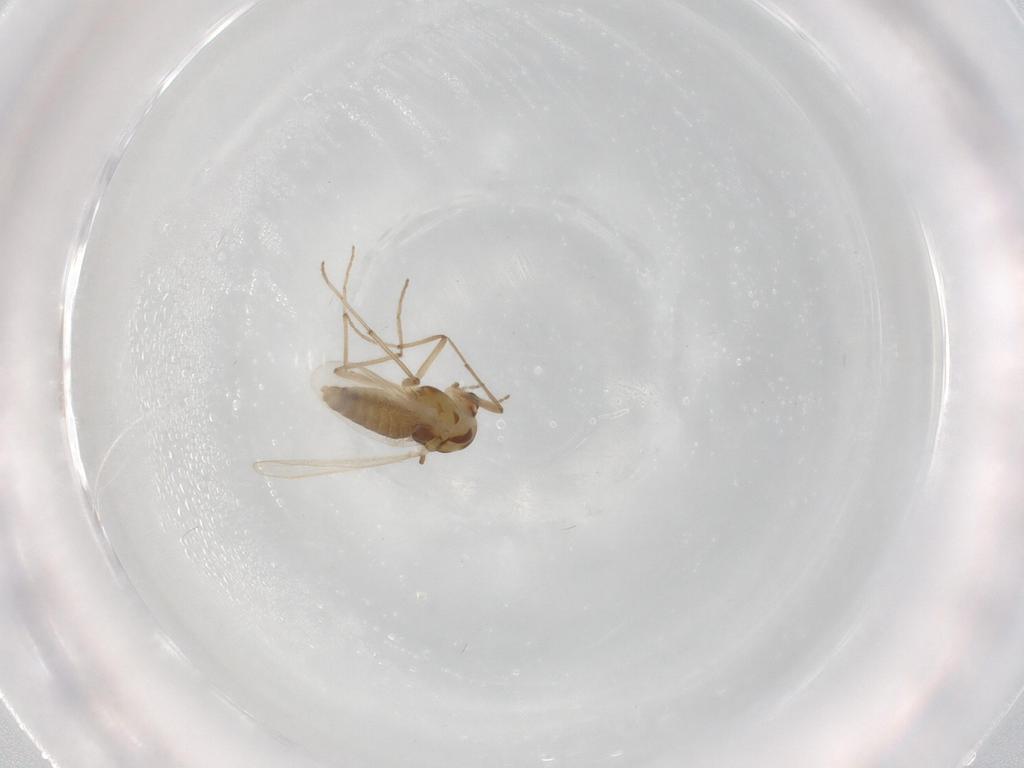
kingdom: Animalia
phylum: Arthropoda
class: Insecta
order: Diptera
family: Chironomidae
